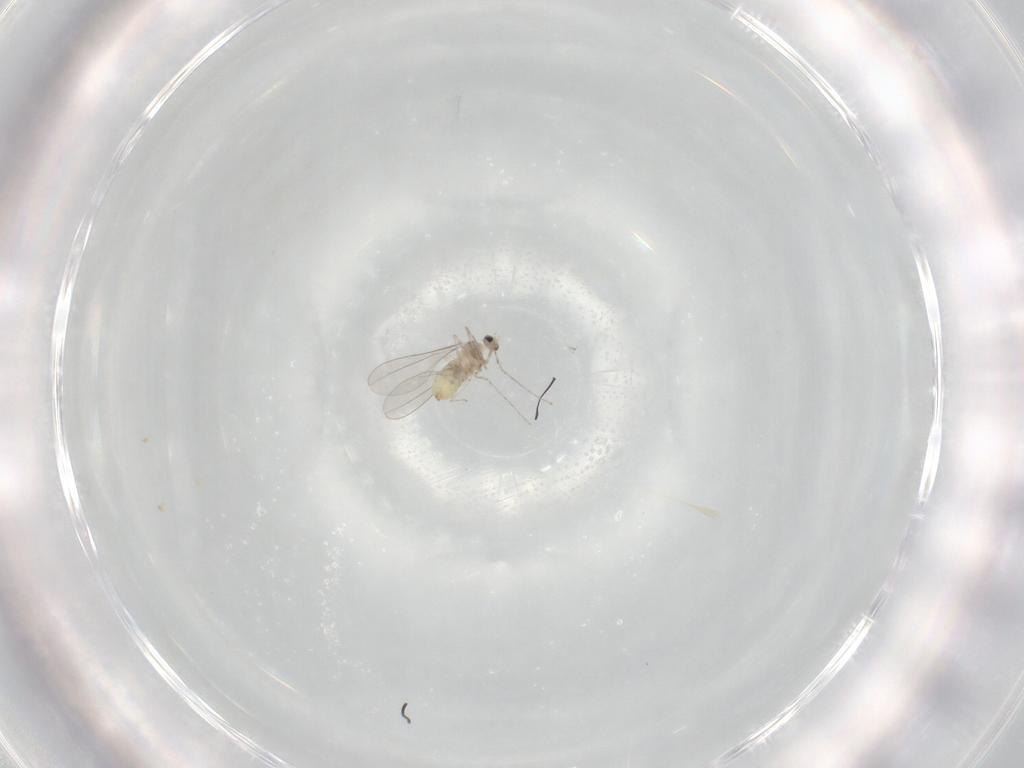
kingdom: Animalia
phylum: Arthropoda
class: Insecta
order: Diptera
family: Cecidomyiidae
